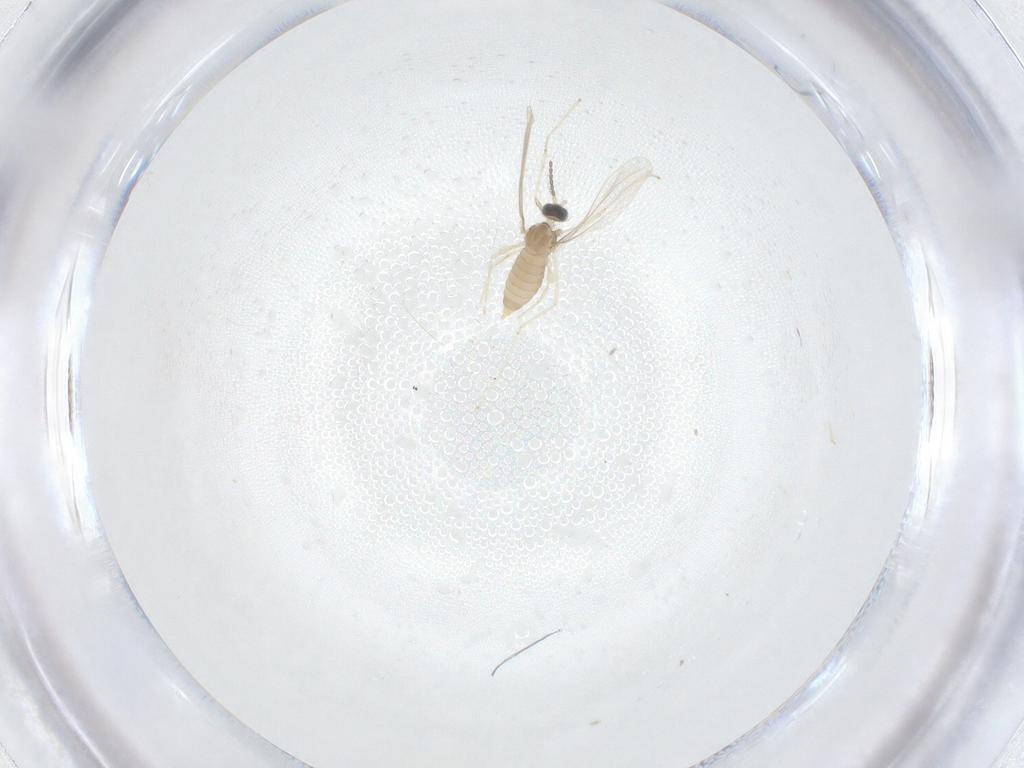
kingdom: Animalia
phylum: Arthropoda
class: Insecta
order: Diptera
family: Cecidomyiidae
